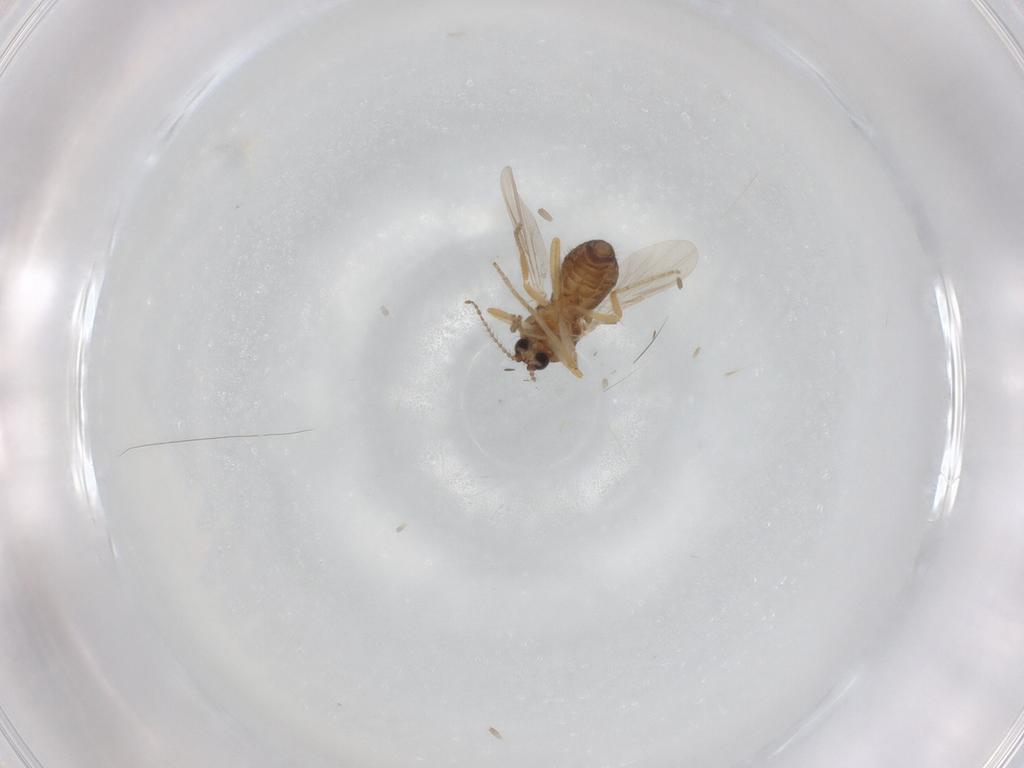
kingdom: Animalia
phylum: Arthropoda
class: Insecta
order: Diptera
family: Ceratopogonidae
